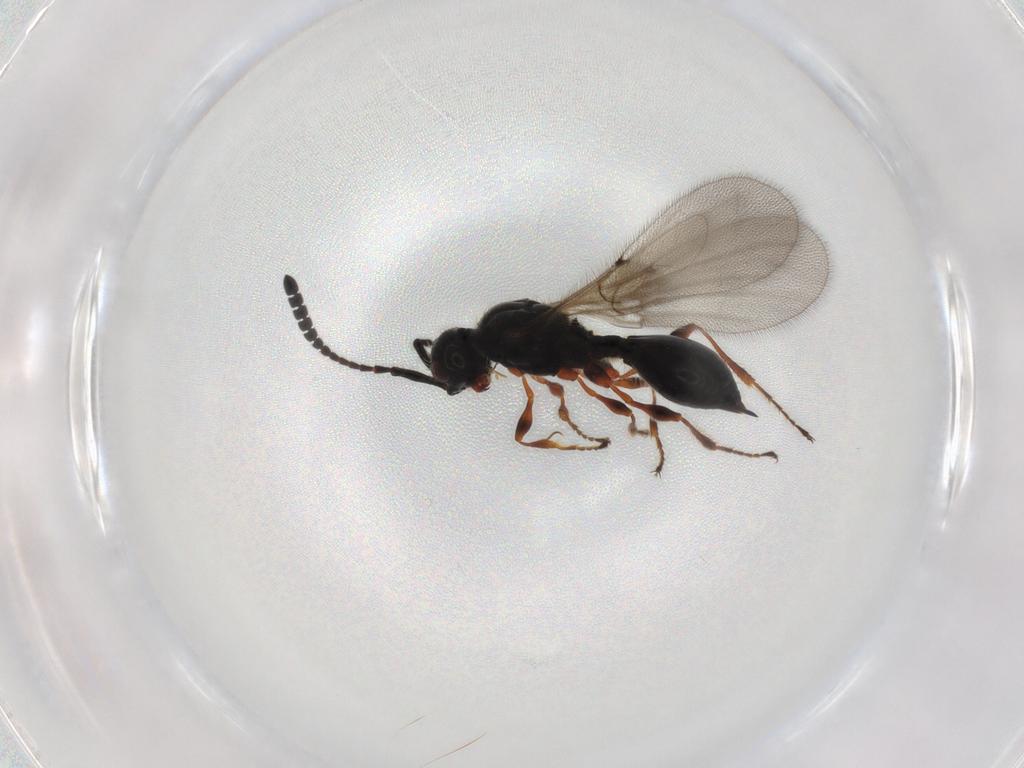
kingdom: Animalia
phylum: Arthropoda
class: Insecta
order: Hymenoptera
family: Diapriidae
